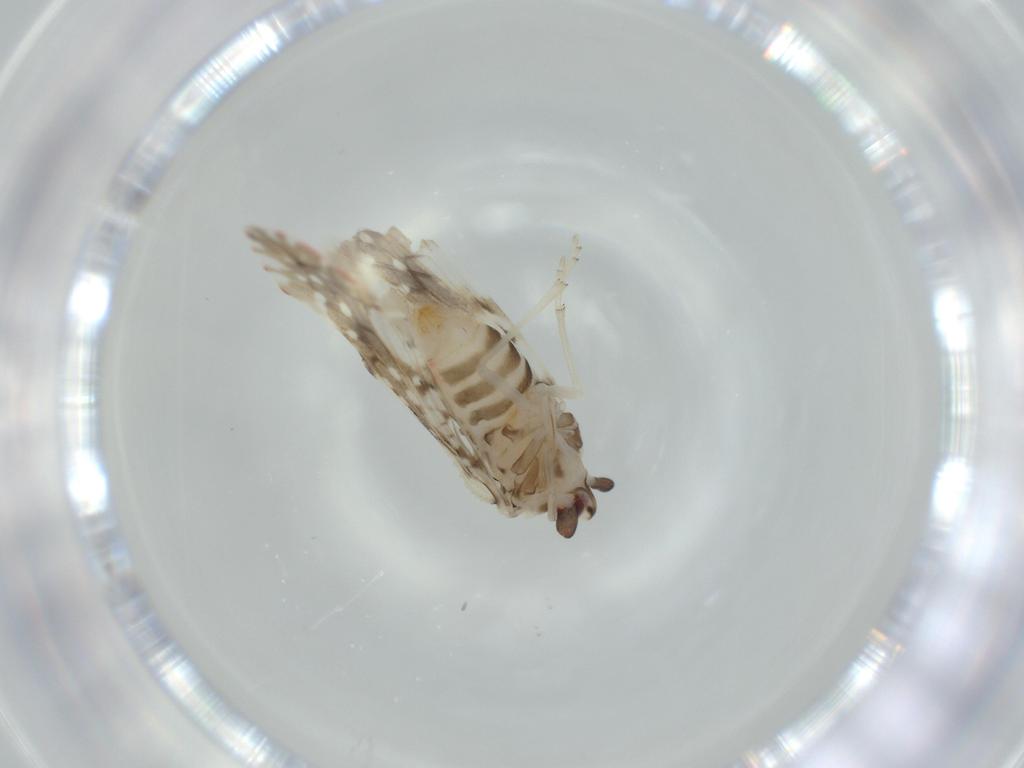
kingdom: Animalia
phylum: Arthropoda
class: Insecta
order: Hemiptera
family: Derbidae
